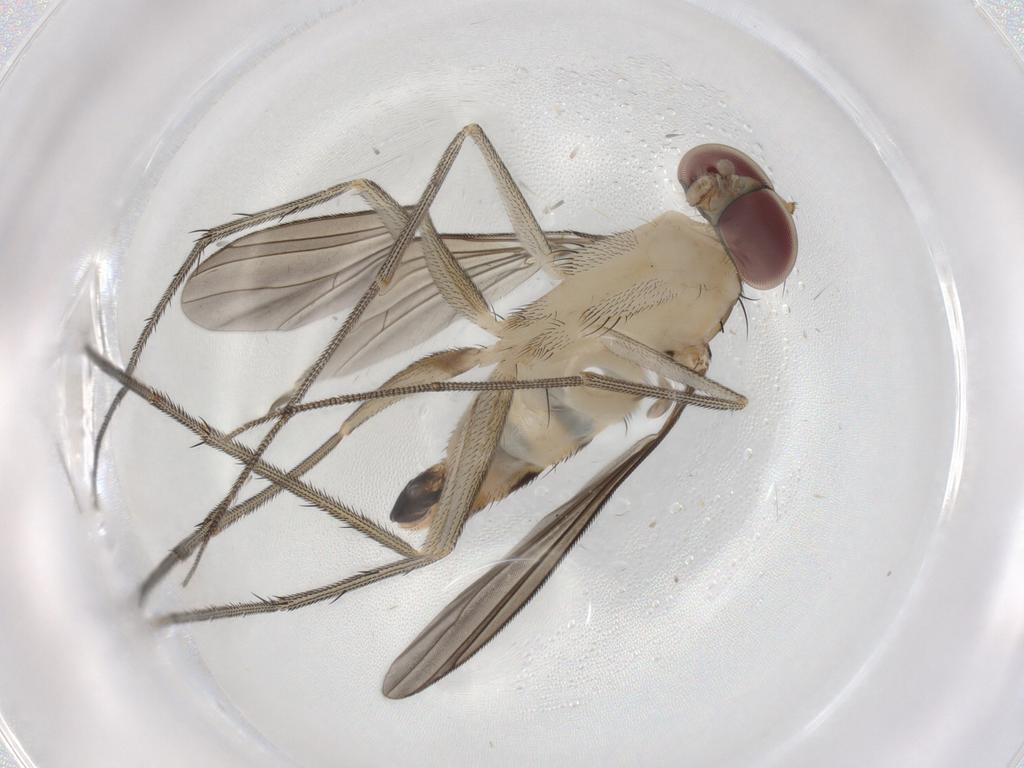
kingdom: Animalia
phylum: Arthropoda
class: Insecta
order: Diptera
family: Dolichopodidae
